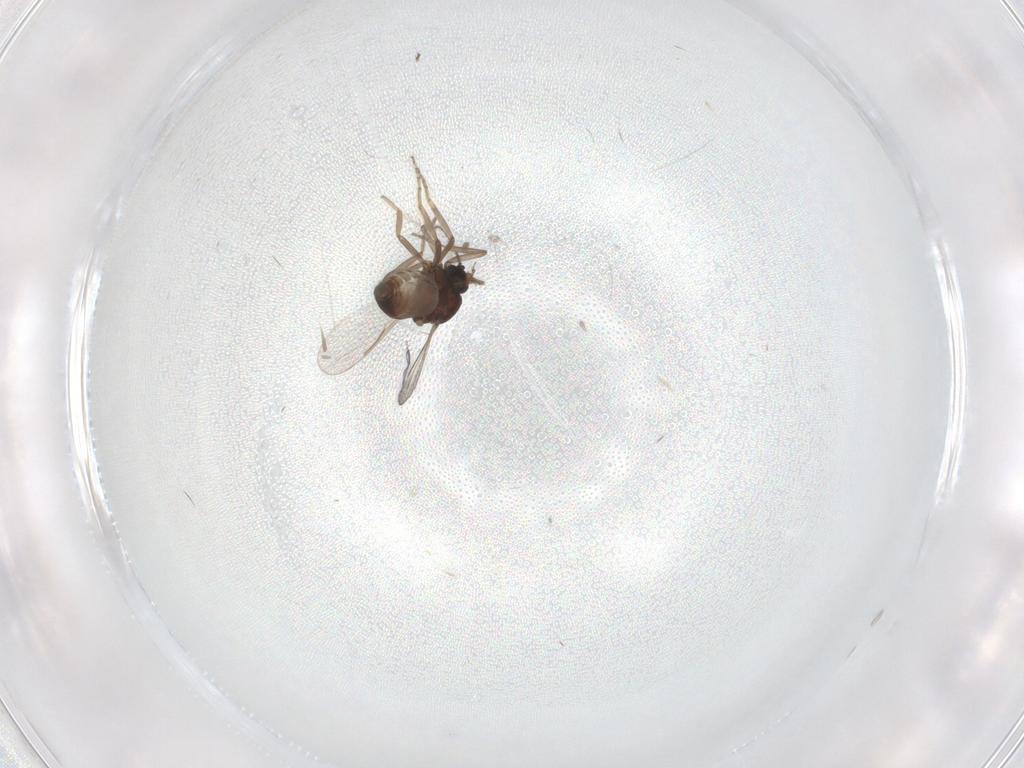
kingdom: Animalia
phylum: Arthropoda
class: Insecta
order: Diptera
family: Ceratopogonidae
